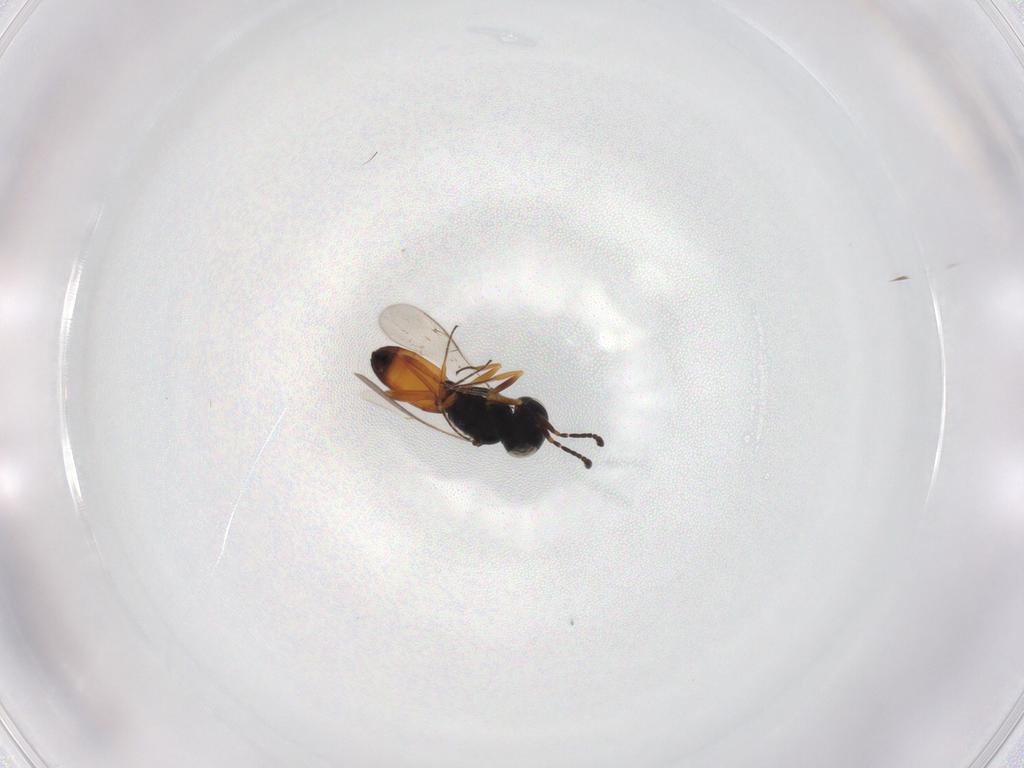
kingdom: Animalia
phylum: Arthropoda
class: Insecta
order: Hymenoptera
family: Scelionidae
